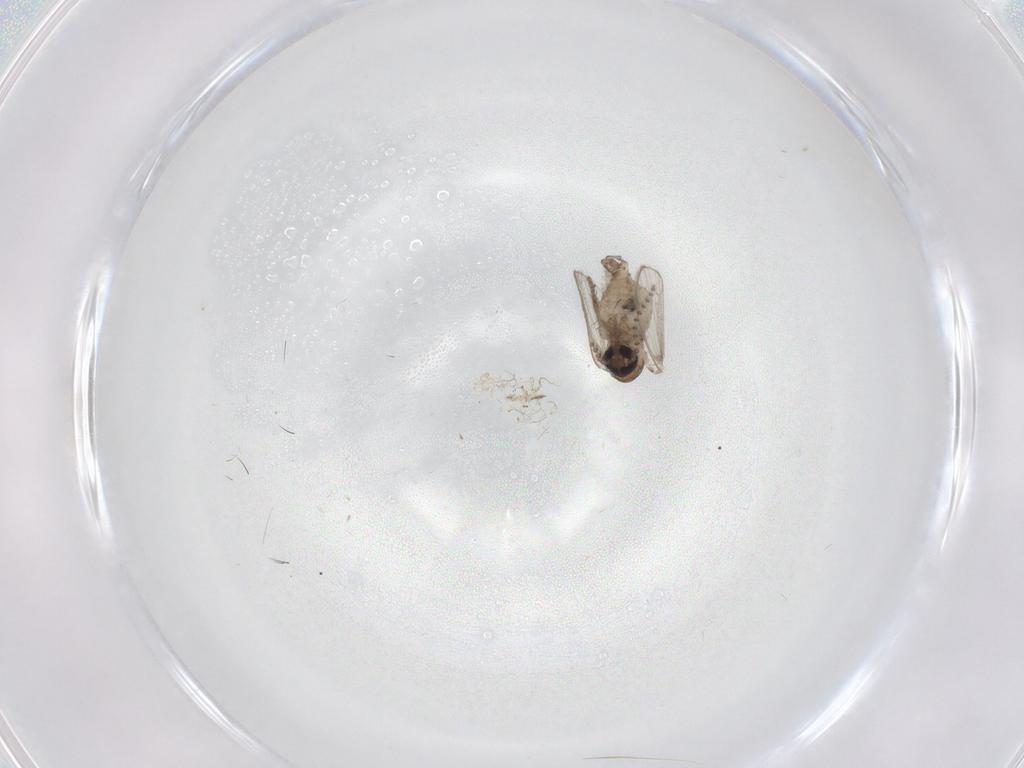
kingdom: Animalia
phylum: Arthropoda
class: Insecta
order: Diptera
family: Psychodidae
